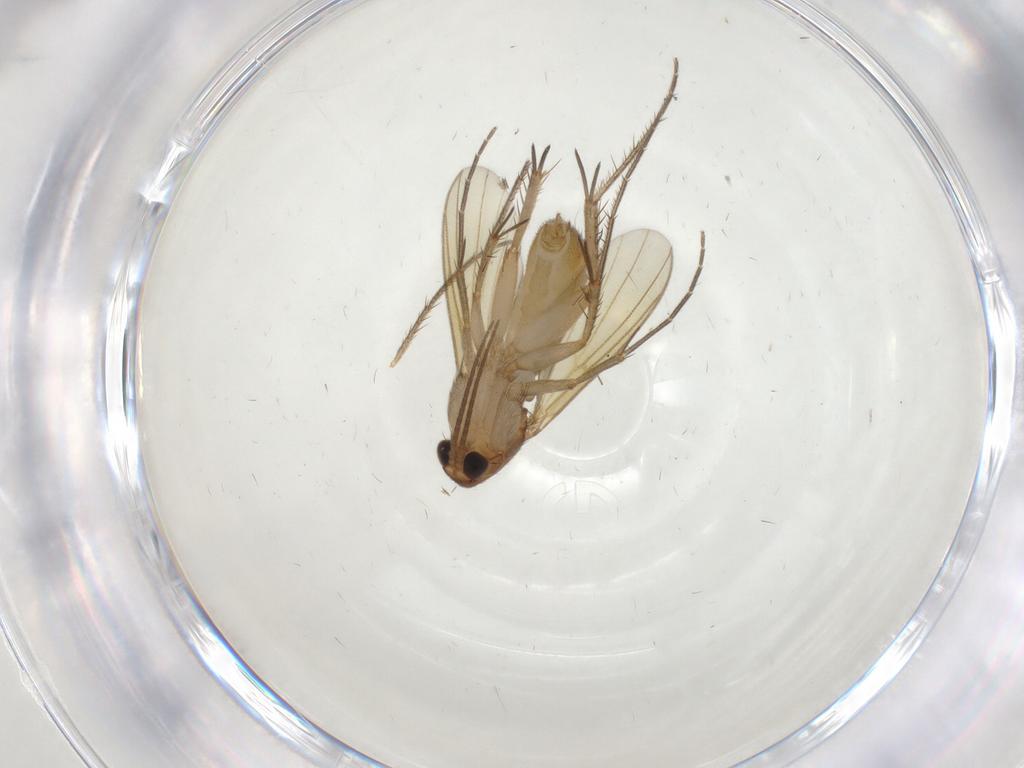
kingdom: Animalia
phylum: Arthropoda
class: Insecta
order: Diptera
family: Mycetophilidae
